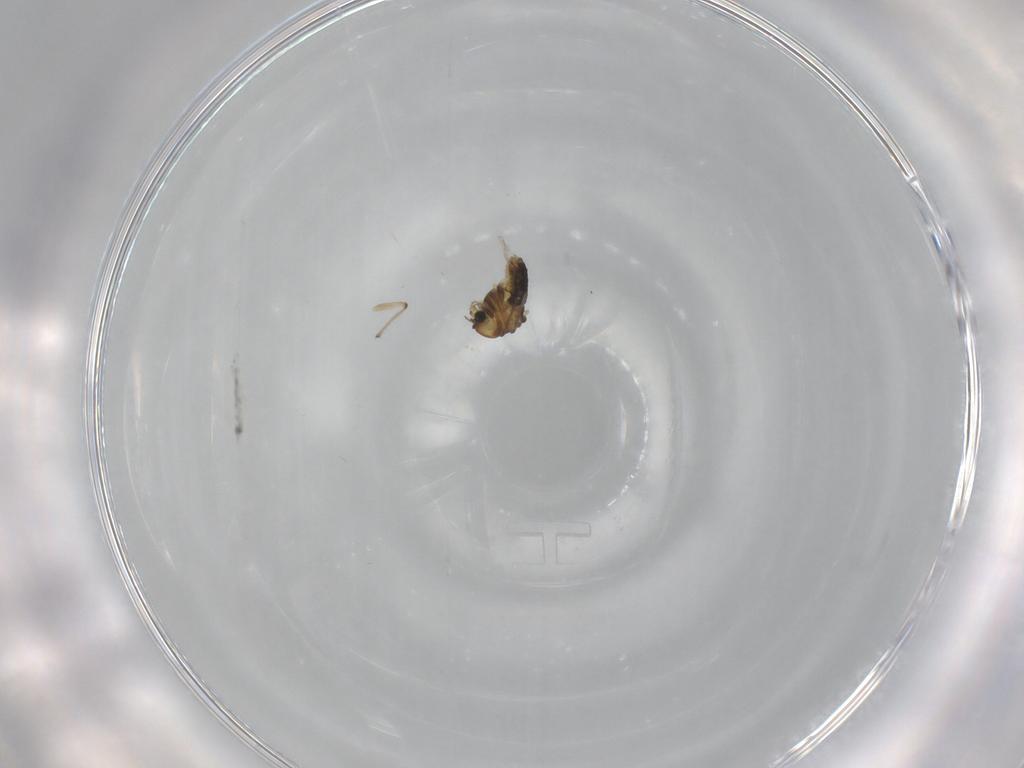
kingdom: Animalia
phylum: Arthropoda
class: Insecta
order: Diptera
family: Chironomidae
